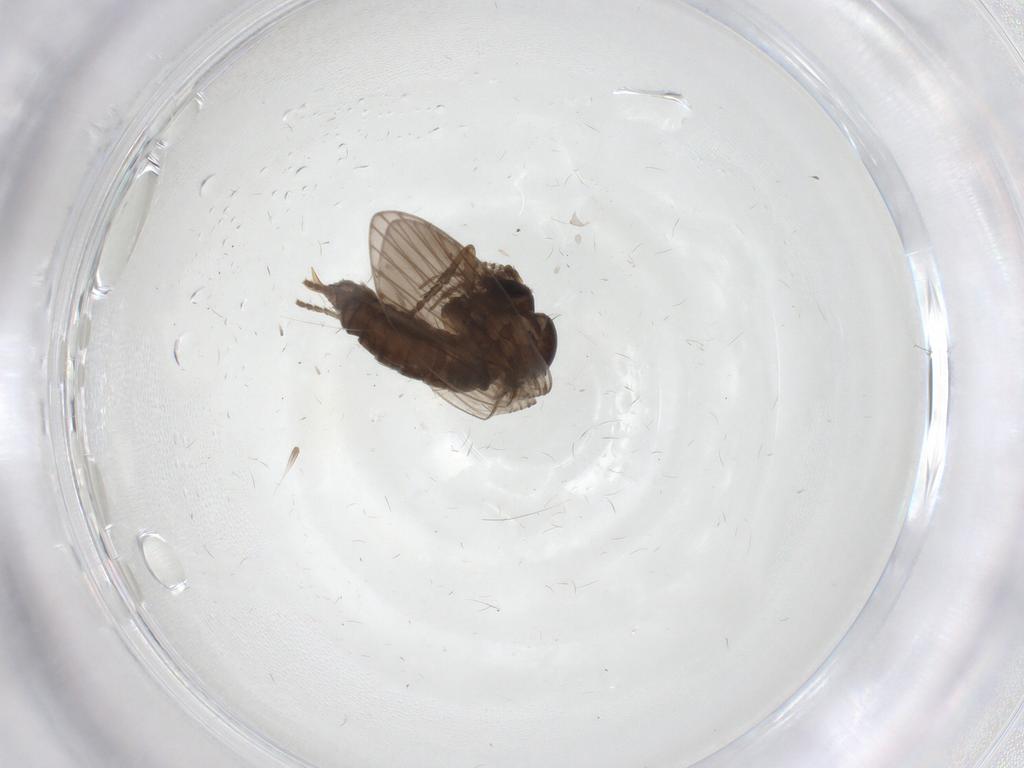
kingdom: Animalia
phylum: Arthropoda
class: Insecta
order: Diptera
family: Psychodidae
